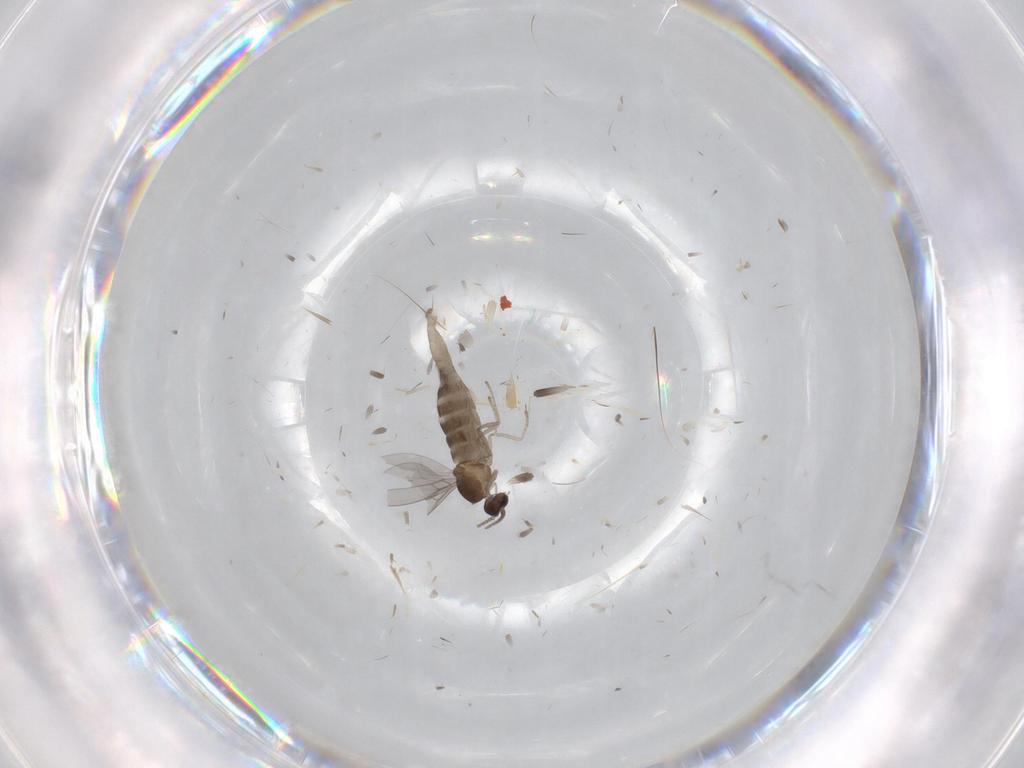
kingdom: Animalia
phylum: Arthropoda
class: Insecta
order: Diptera
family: Cecidomyiidae
